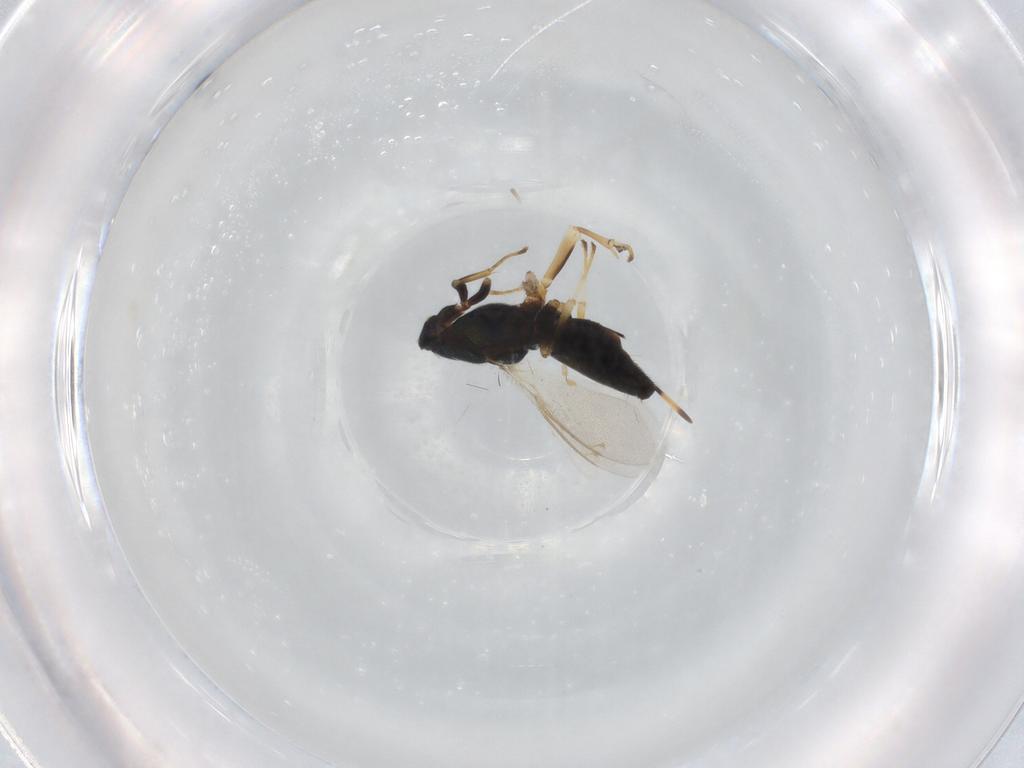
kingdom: Animalia
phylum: Arthropoda
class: Insecta
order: Hymenoptera
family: Eupelmidae
